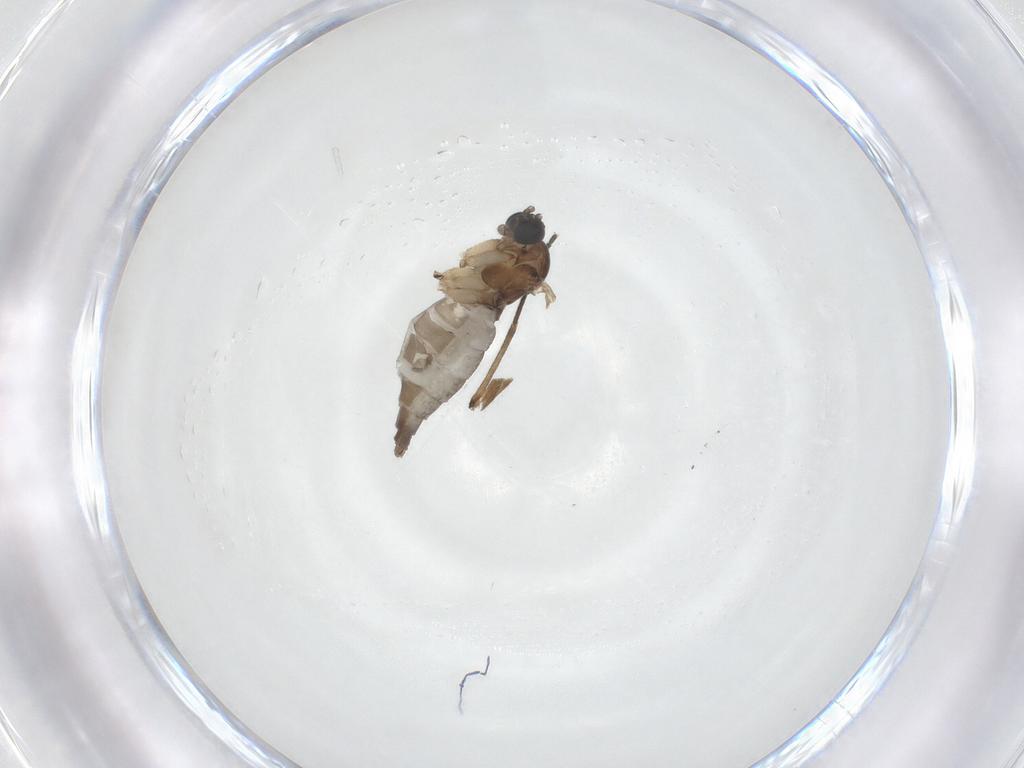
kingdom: Animalia
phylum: Arthropoda
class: Insecta
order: Diptera
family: Sciaridae
